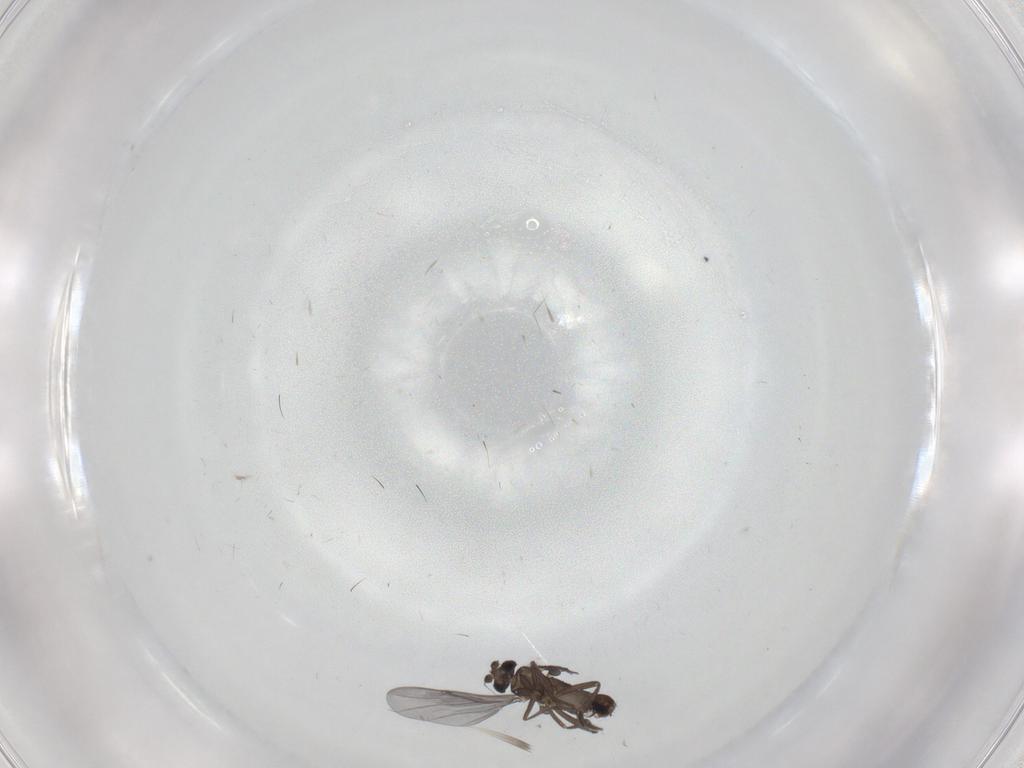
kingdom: Animalia
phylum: Arthropoda
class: Insecta
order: Diptera
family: Phoridae
